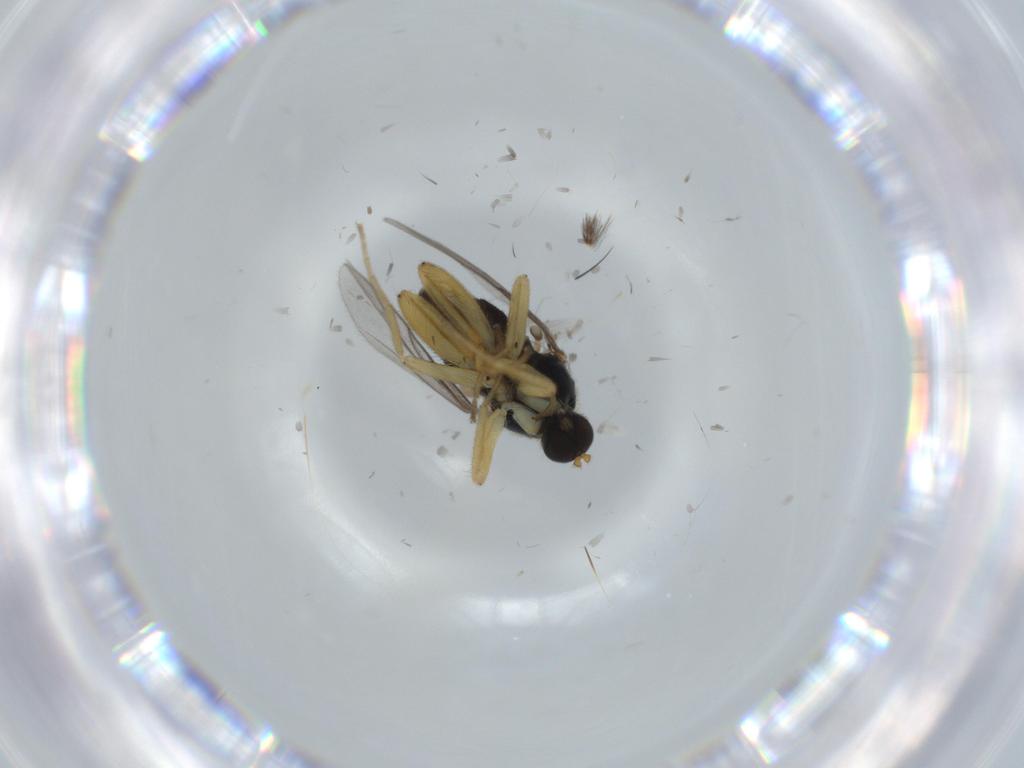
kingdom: Animalia
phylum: Arthropoda
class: Insecta
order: Diptera
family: Hybotidae
